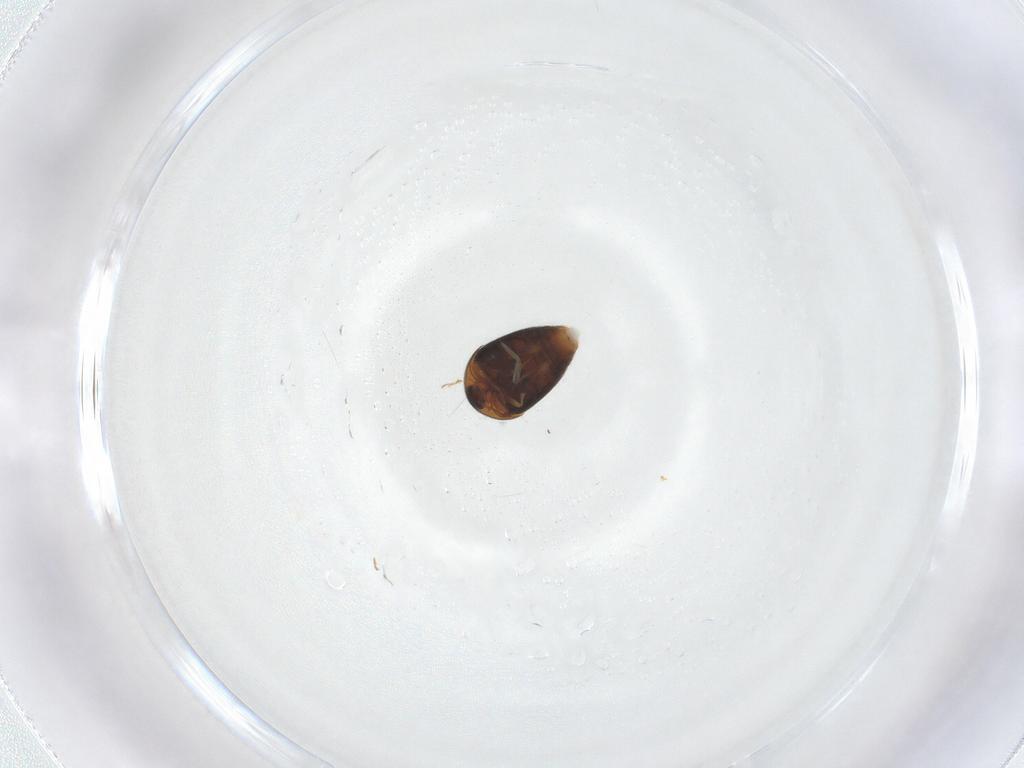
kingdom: Animalia
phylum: Arthropoda
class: Insecta
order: Coleoptera
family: Corylophidae
